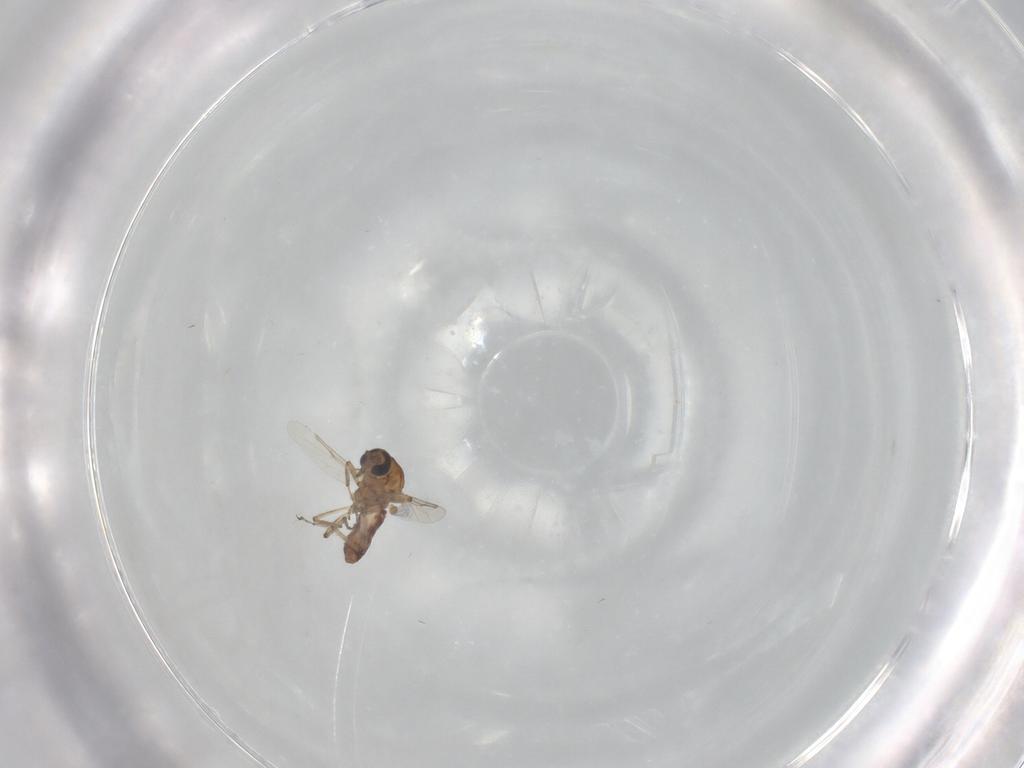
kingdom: Animalia
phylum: Arthropoda
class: Insecta
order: Diptera
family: Ceratopogonidae
